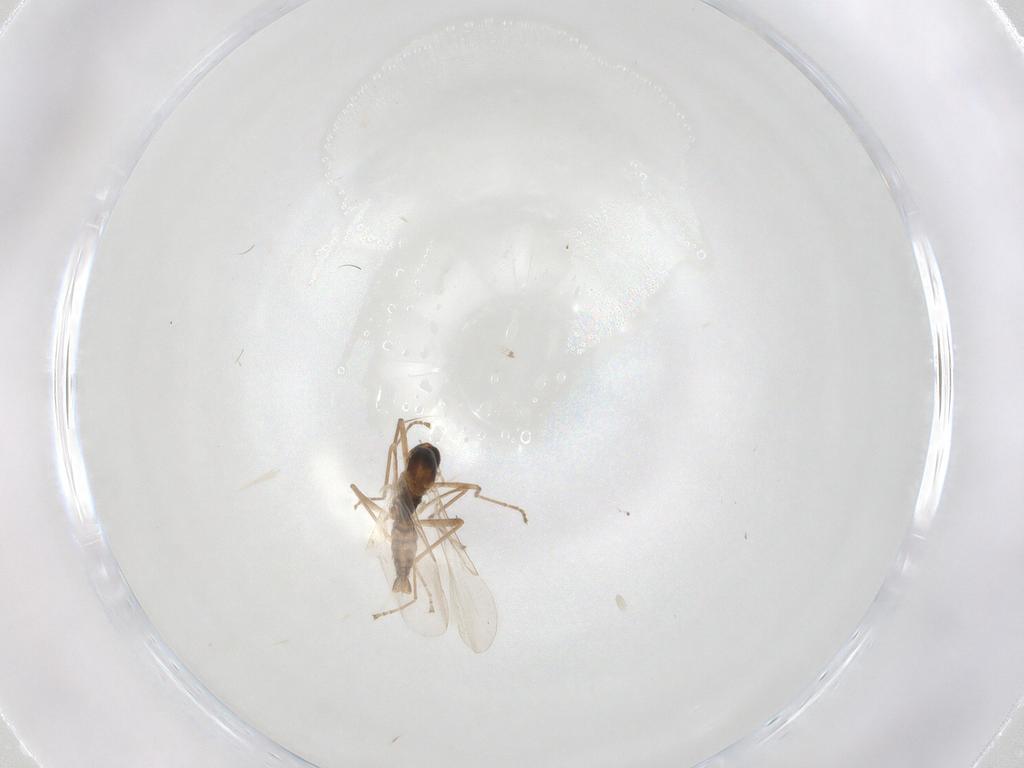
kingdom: Animalia
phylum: Arthropoda
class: Insecta
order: Diptera
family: Cecidomyiidae
